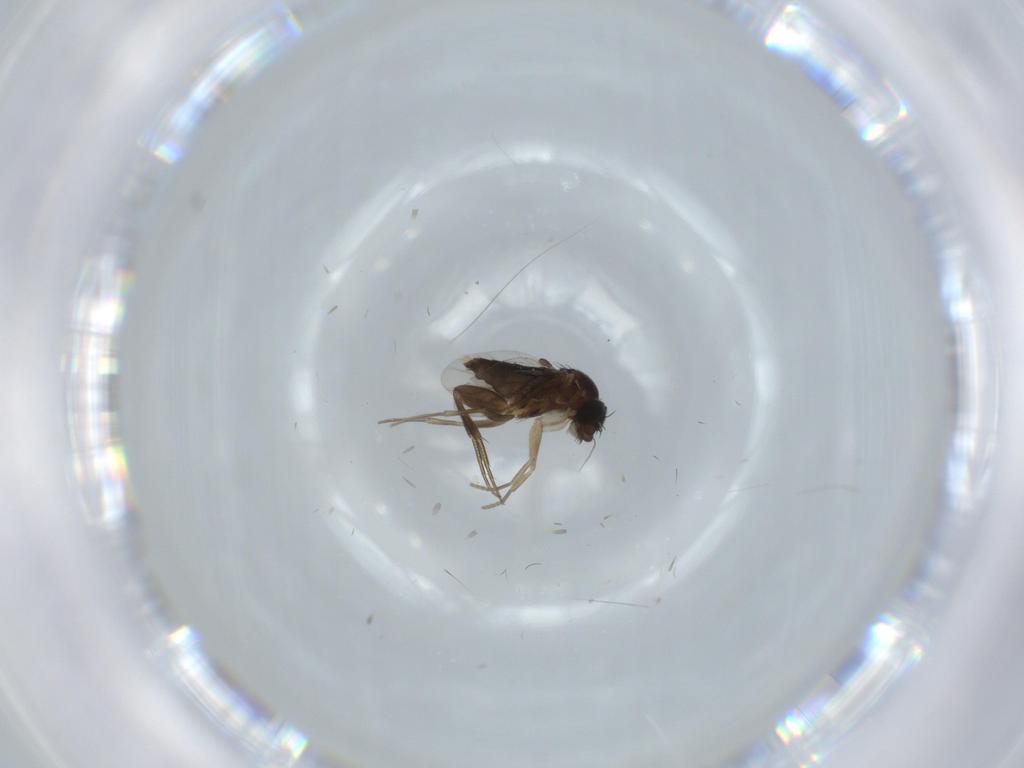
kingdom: Animalia
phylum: Arthropoda
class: Insecta
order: Diptera
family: Drosophilidae
